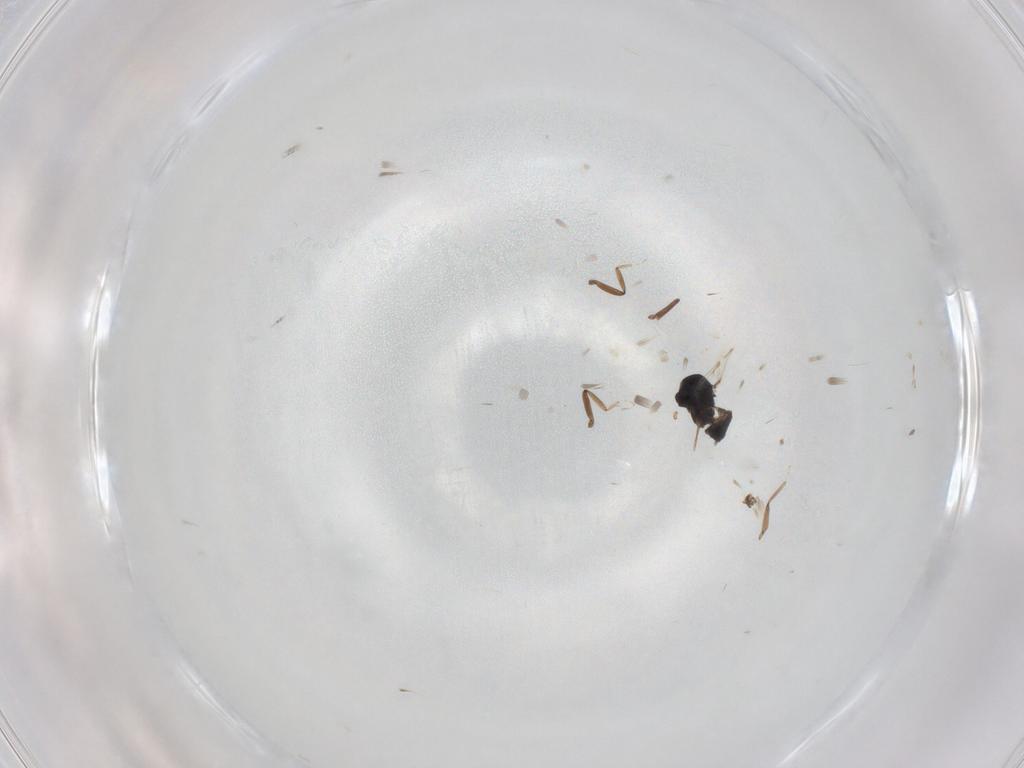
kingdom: Animalia
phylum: Arthropoda
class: Insecta
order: Diptera
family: Ceratopogonidae
